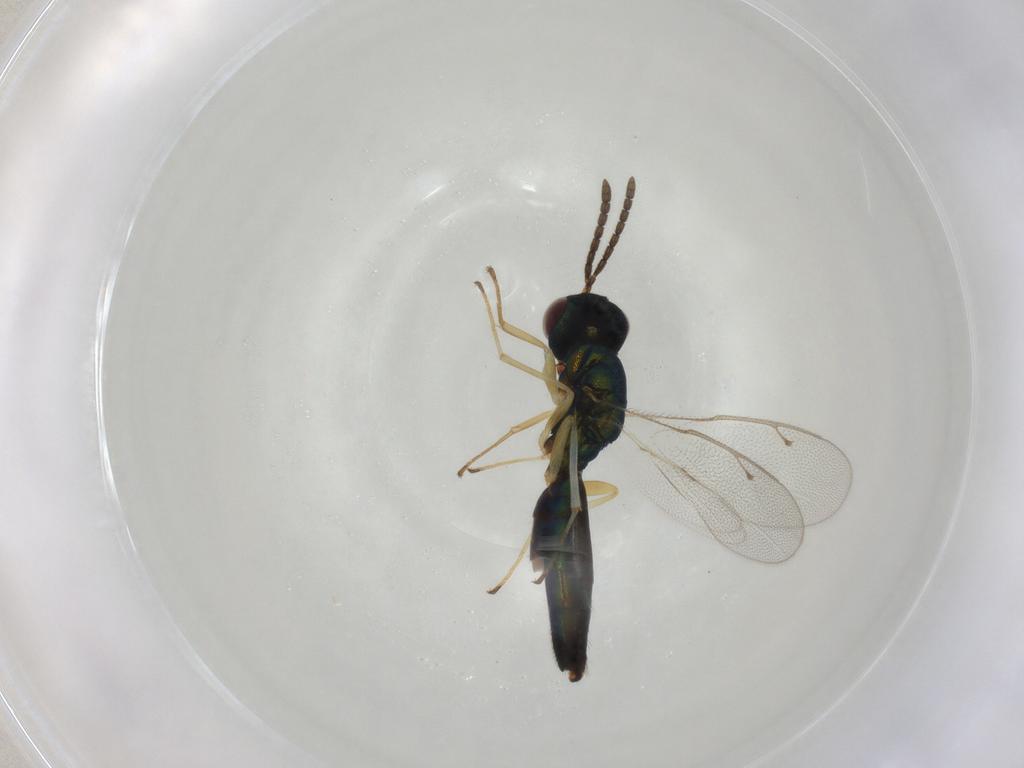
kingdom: Animalia
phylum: Arthropoda
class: Insecta
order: Hymenoptera
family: Pteromalidae
